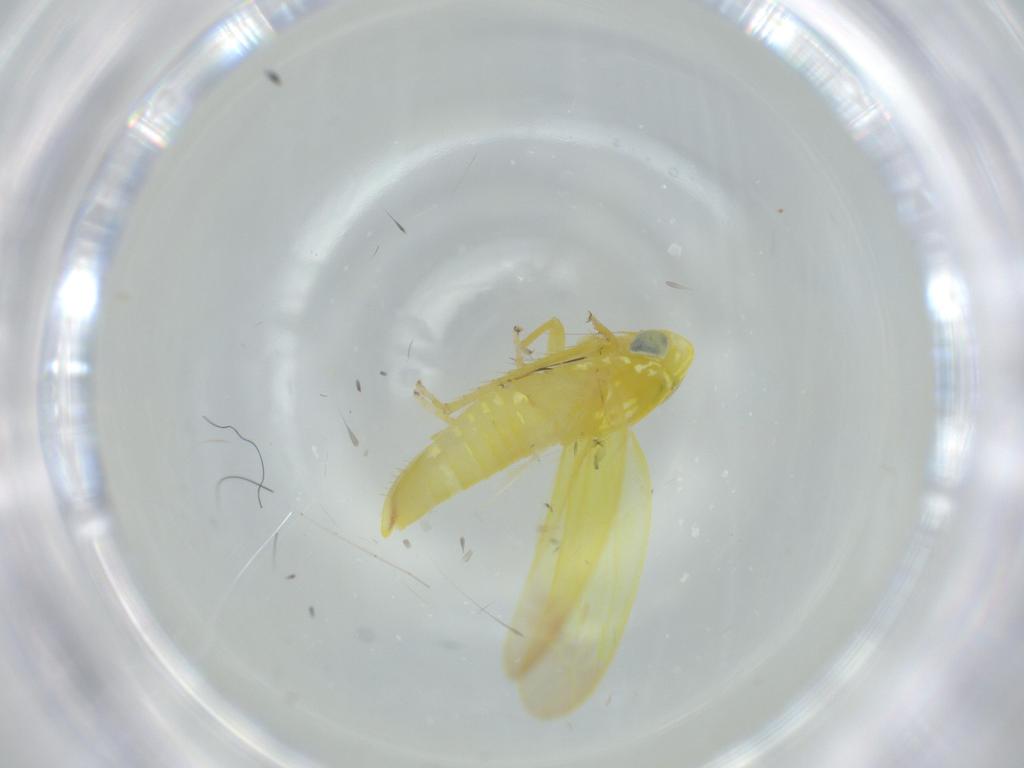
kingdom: Animalia
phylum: Arthropoda
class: Insecta
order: Hemiptera
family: Cicadellidae
